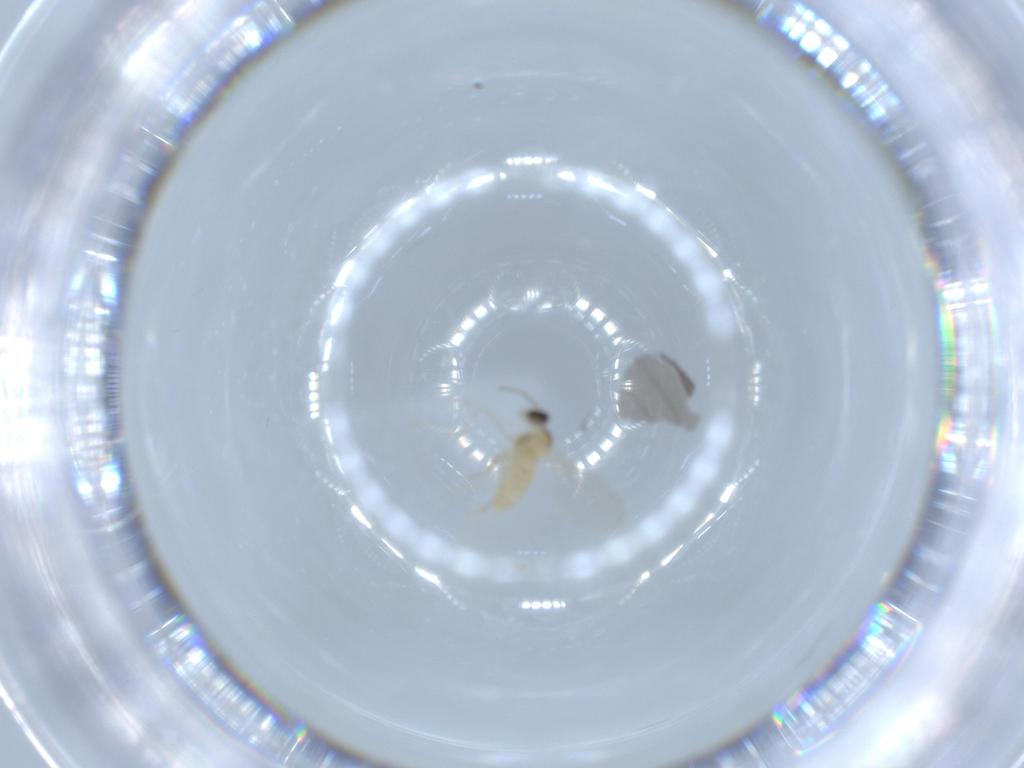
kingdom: Animalia
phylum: Arthropoda
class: Insecta
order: Diptera
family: Cecidomyiidae
